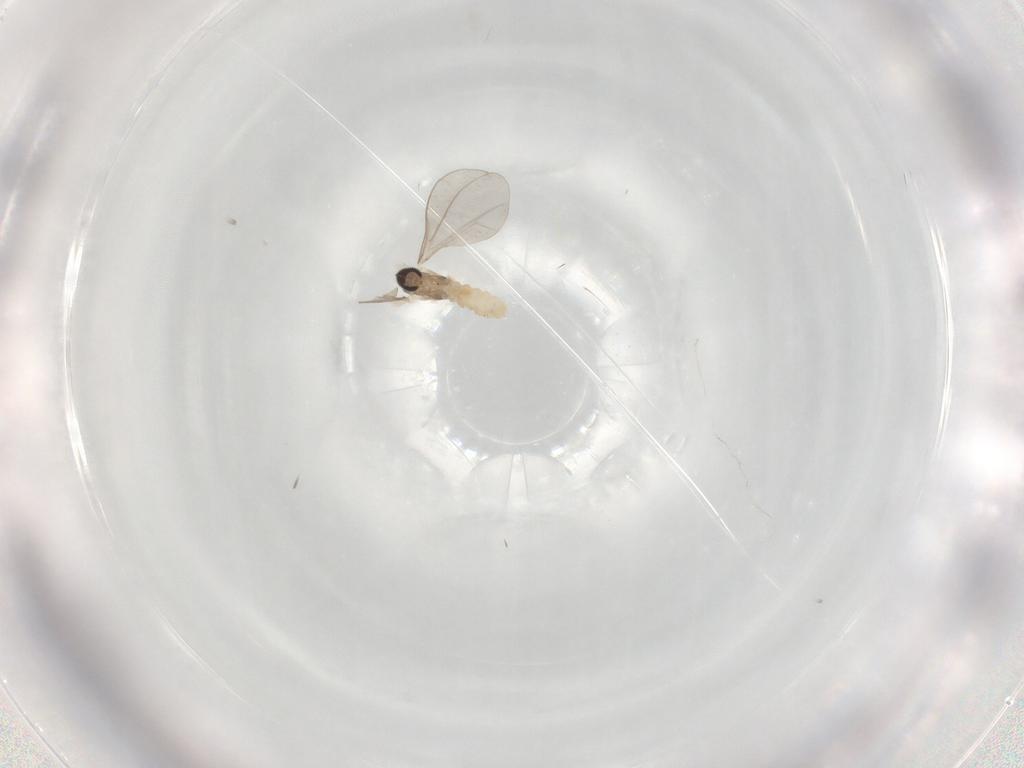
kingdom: Animalia
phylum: Arthropoda
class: Insecta
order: Diptera
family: Cecidomyiidae
